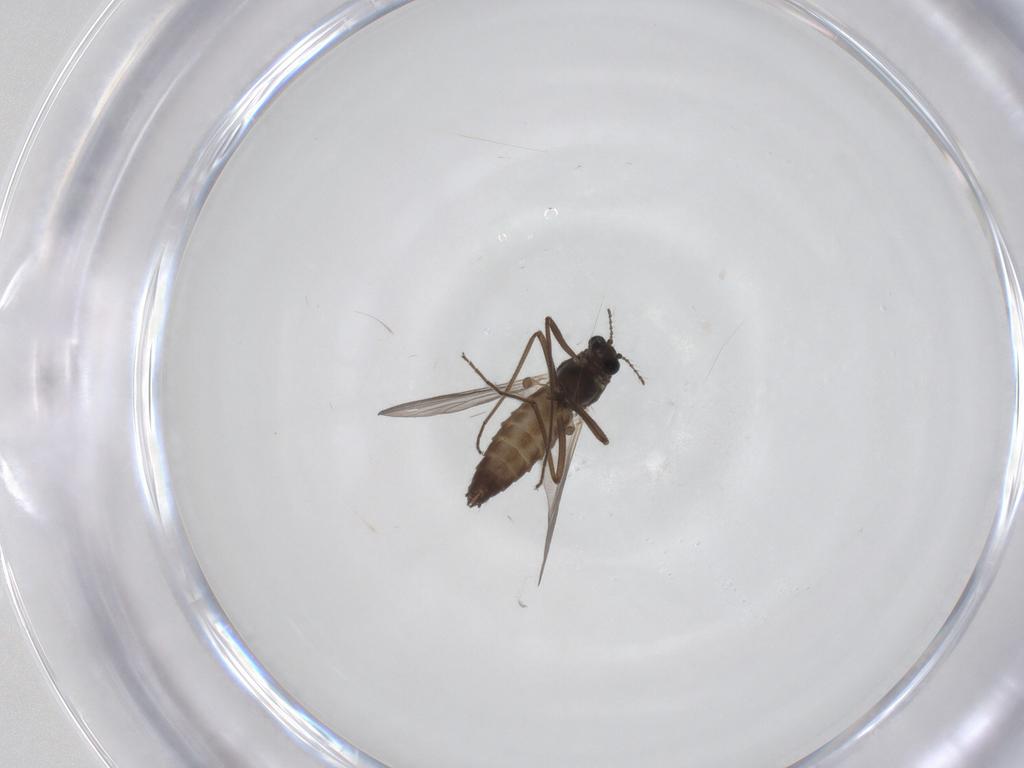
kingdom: Animalia
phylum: Arthropoda
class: Insecta
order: Diptera
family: Chironomidae
